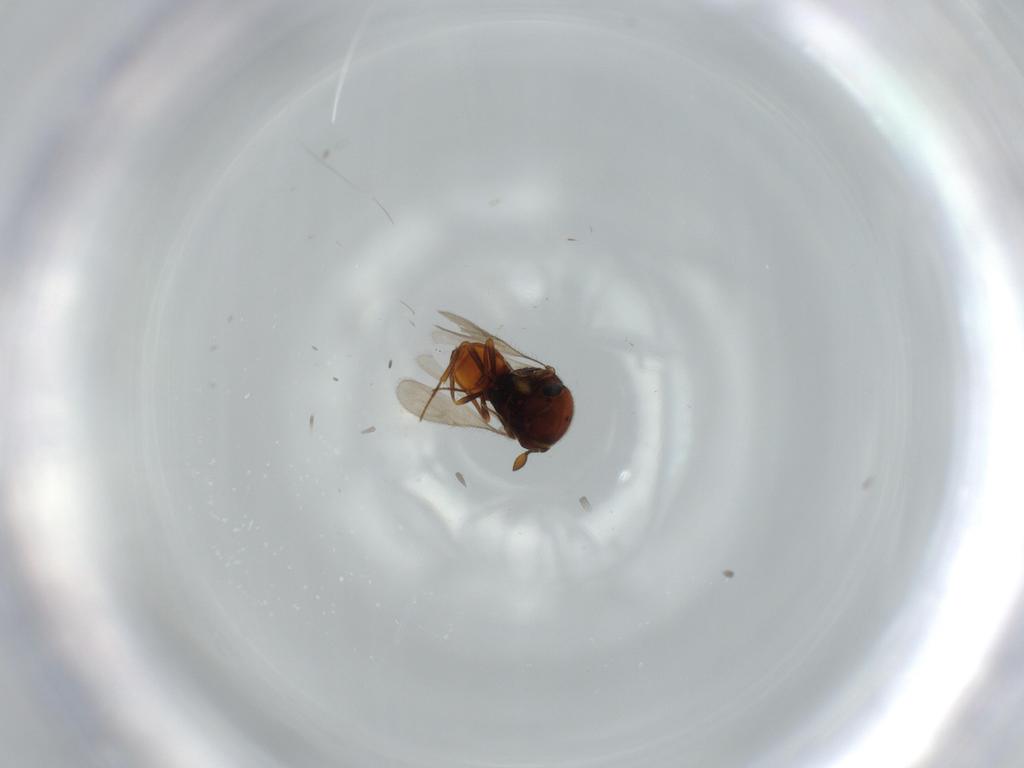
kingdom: Animalia
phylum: Arthropoda
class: Insecta
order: Hymenoptera
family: Scelionidae
